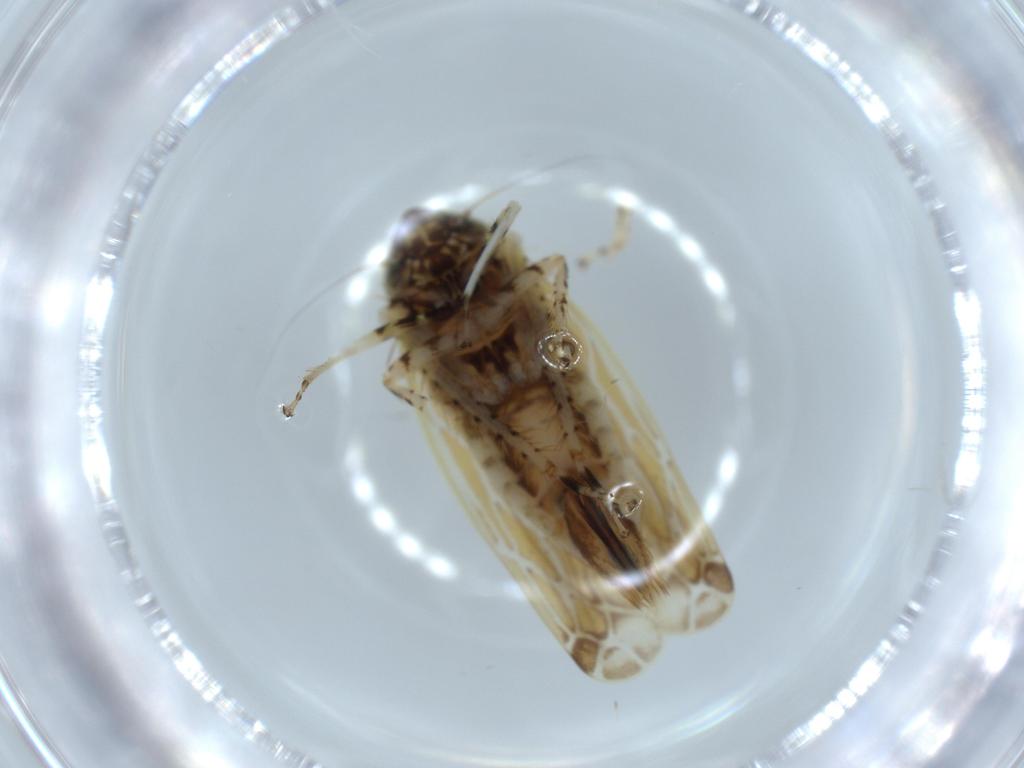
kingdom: Animalia
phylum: Arthropoda
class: Insecta
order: Hemiptera
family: Cicadellidae
